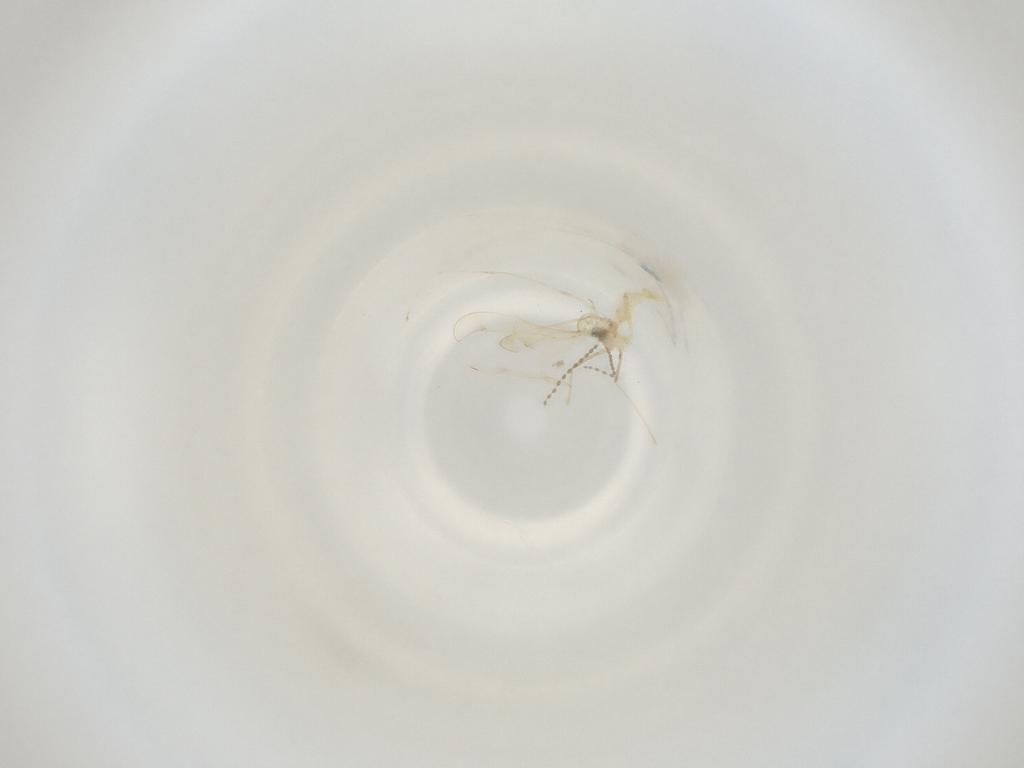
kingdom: Animalia
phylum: Arthropoda
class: Insecta
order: Diptera
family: Cecidomyiidae
